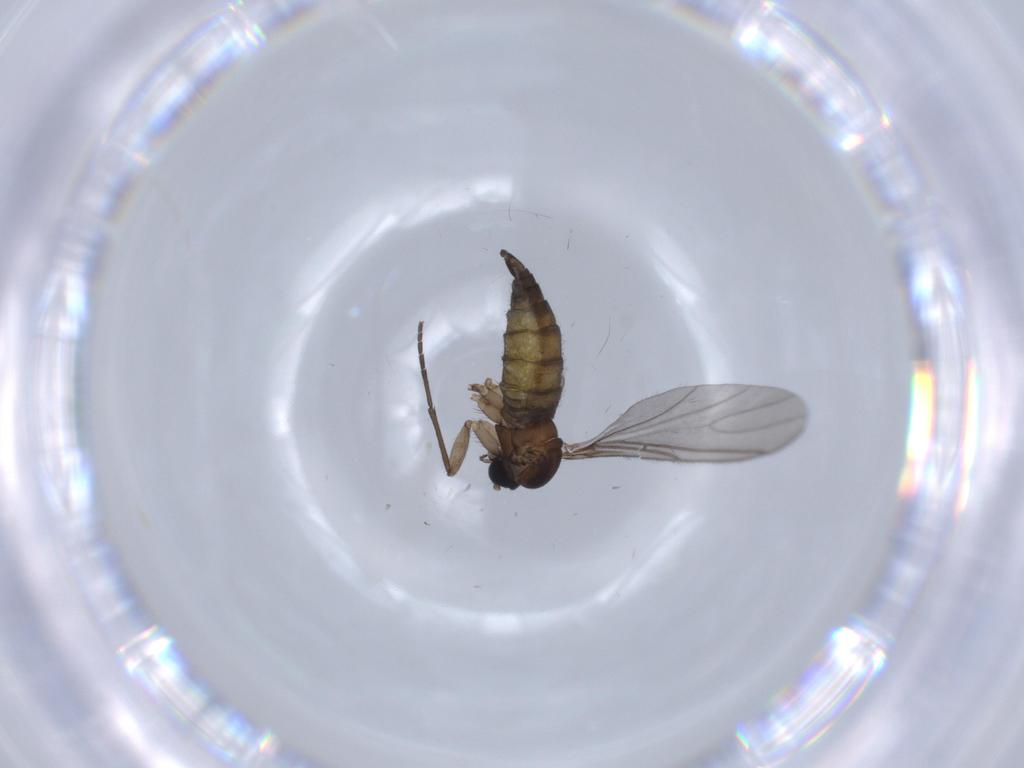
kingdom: Animalia
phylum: Arthropoda
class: Insecta
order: Diptera
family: Sciaridae
